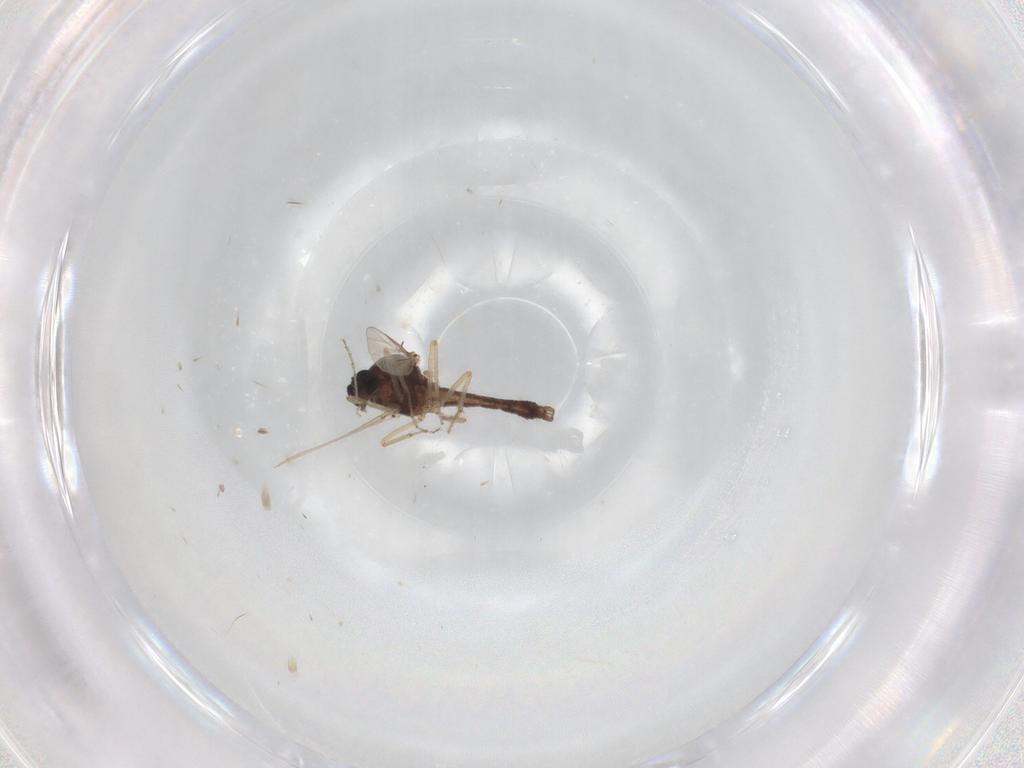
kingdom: Animalia
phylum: Arthropoda
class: Insecta
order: Diptera
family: Ceratopogonidae
